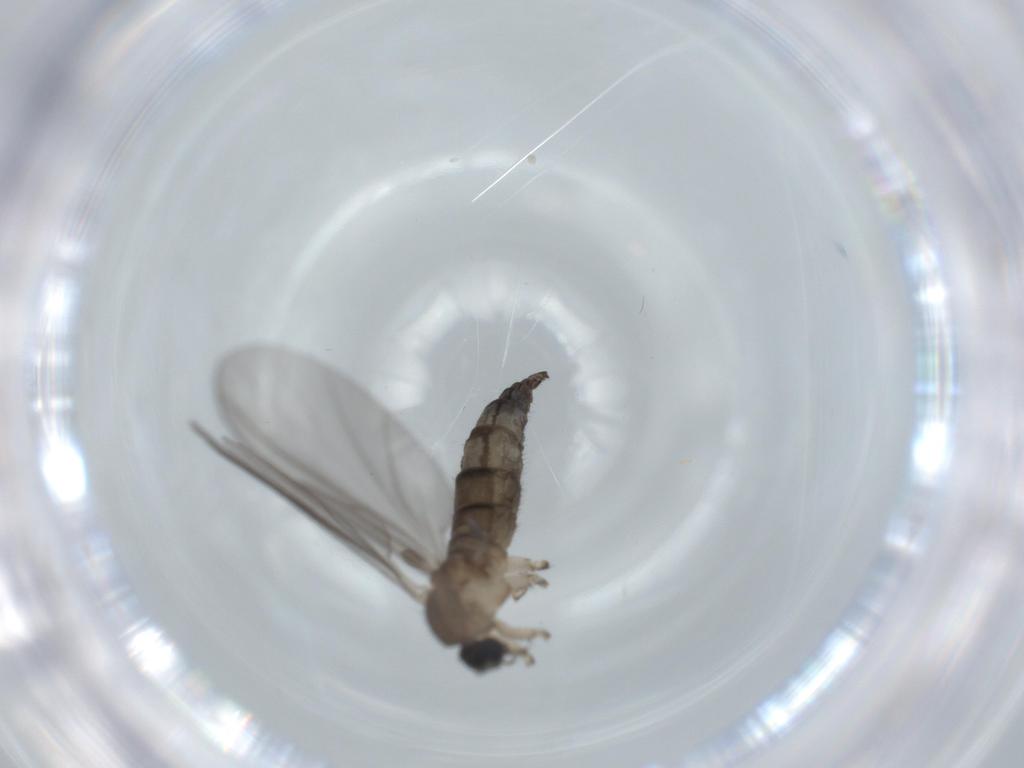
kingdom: Animalia
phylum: Arthropoda
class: Insecta
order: Diptera
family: Sciaridae
